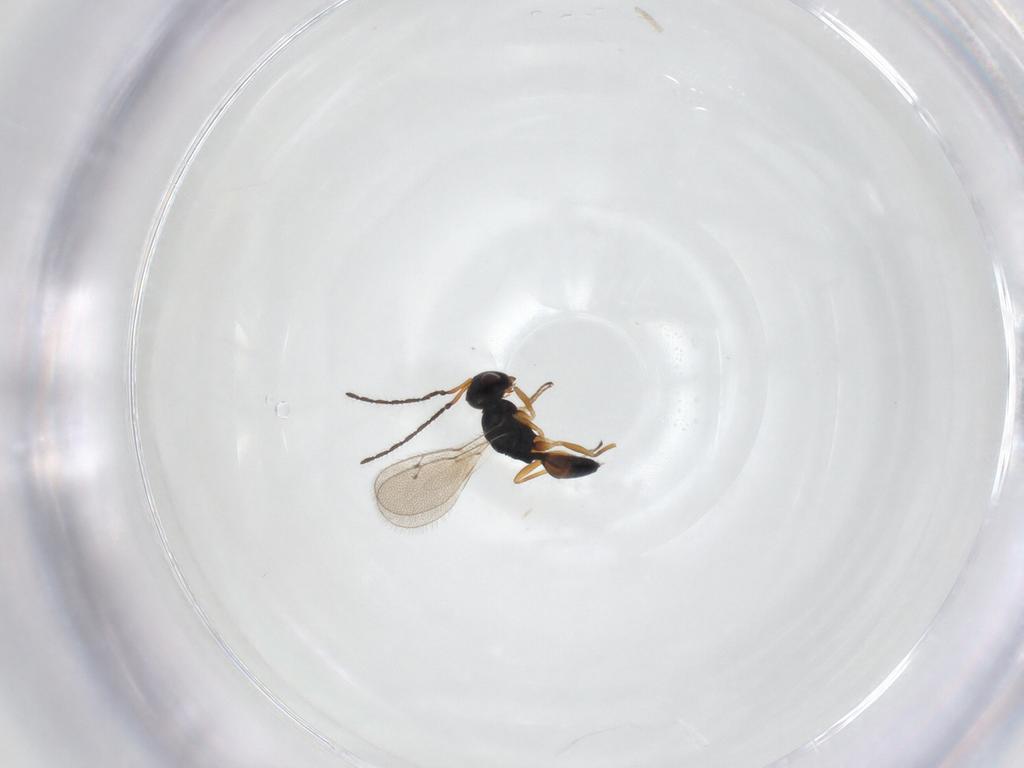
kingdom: Animalia
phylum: Arthropoda
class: Insecta
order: Hymenoptera
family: Pteromalidae
